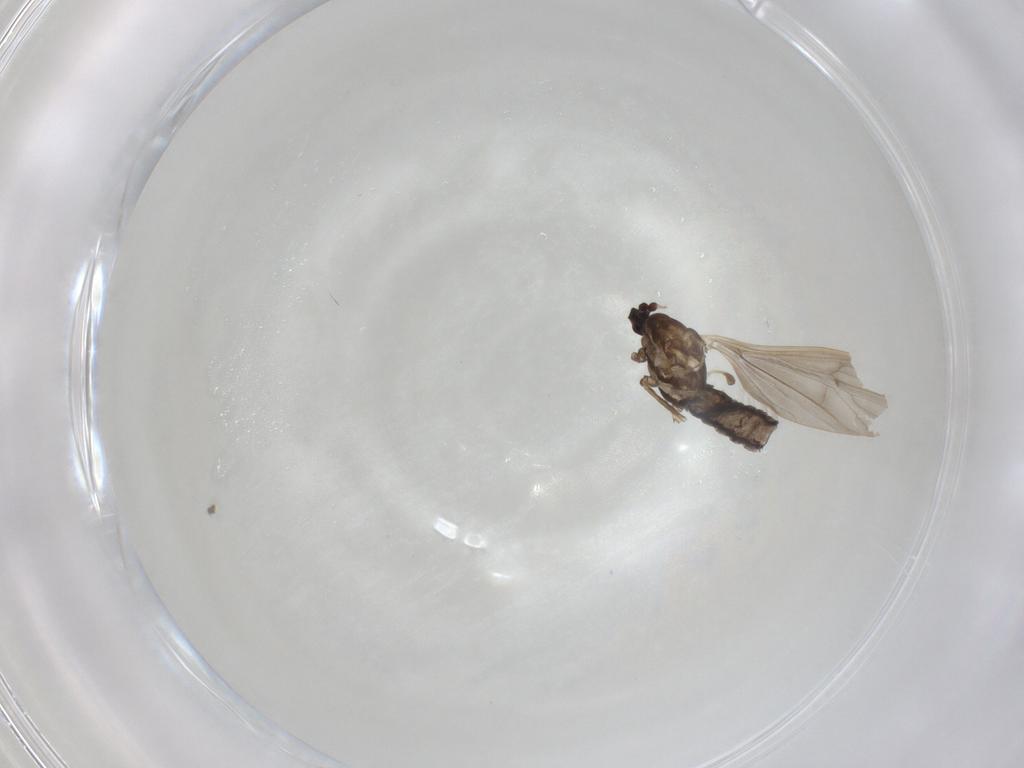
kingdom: Animalia
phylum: Arthropoda
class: Insecta
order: Diptera
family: Limoniidae
